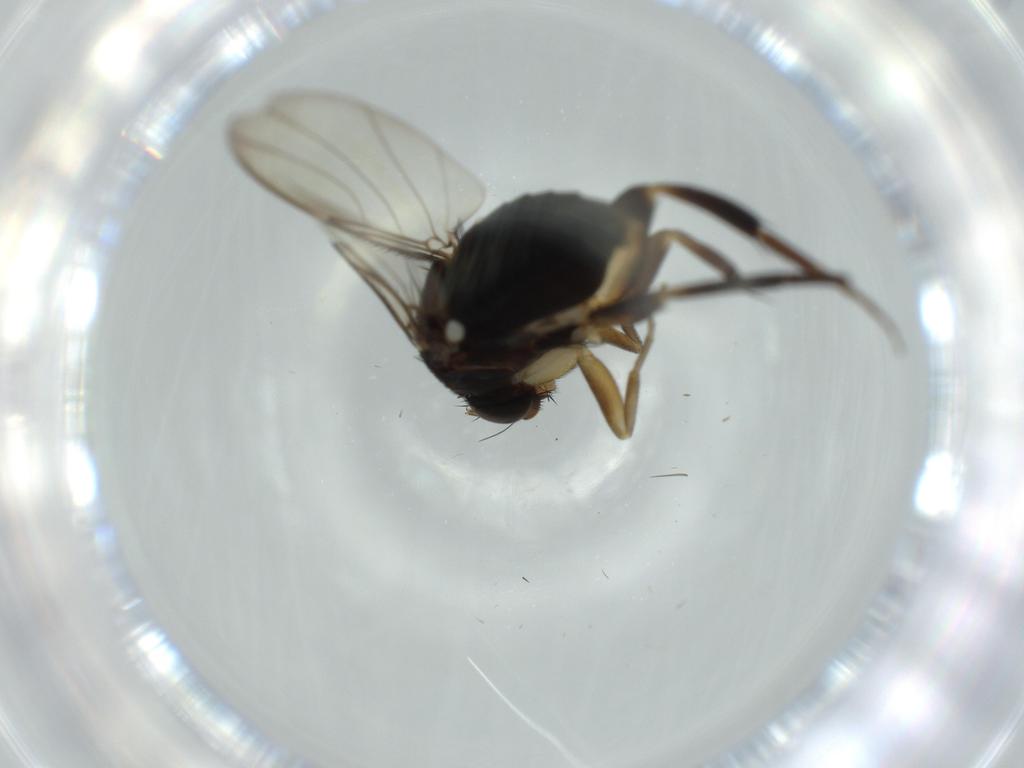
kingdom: Animalia
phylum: Arthropoda
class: Insecta
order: Diptera
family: Phoridae
